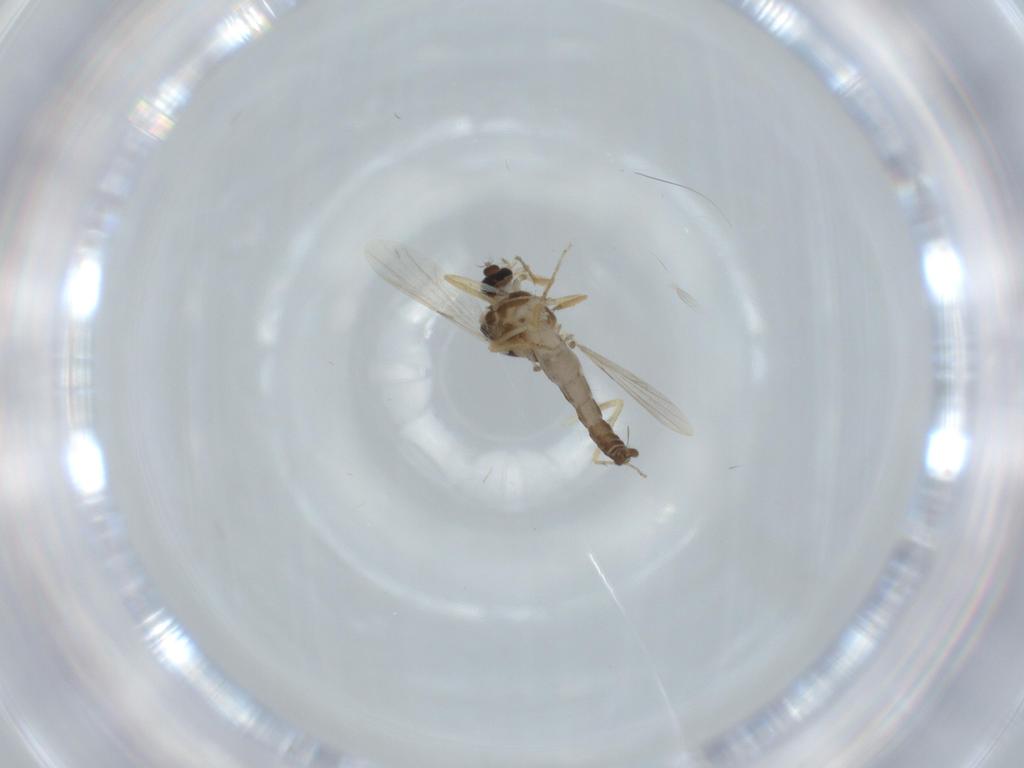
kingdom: Animalia
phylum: Arthropoda
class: Insecta
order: Diptera
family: Ceratopogonidae
